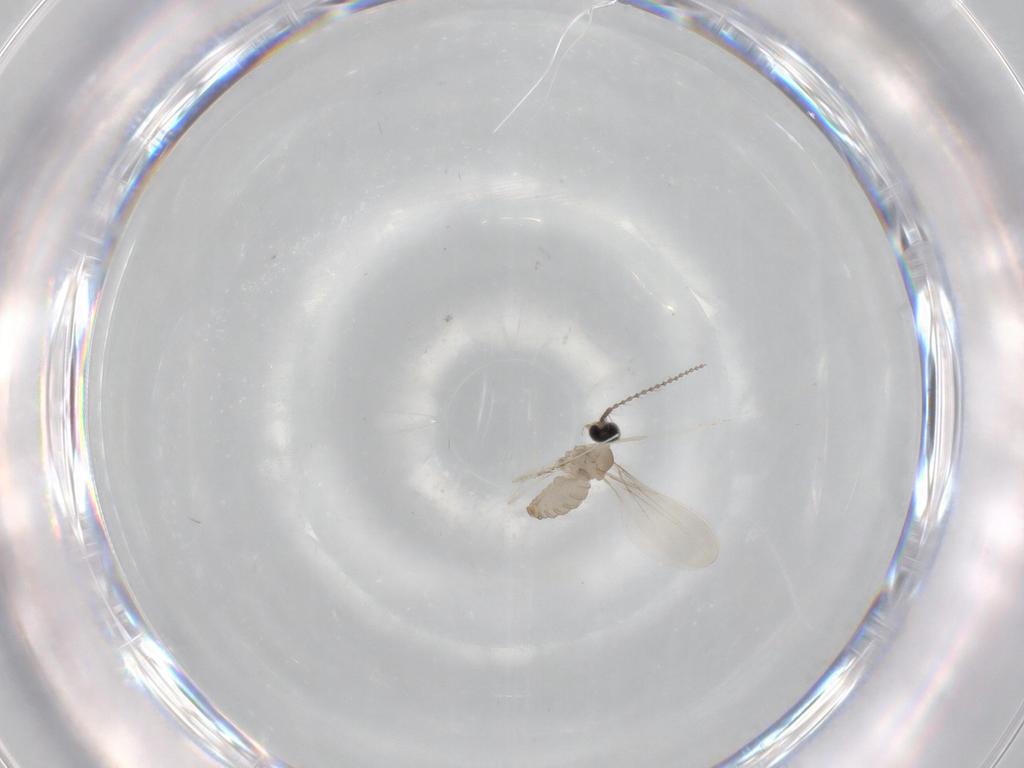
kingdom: Animalia
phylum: Arthropoda
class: Insecta
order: Diptera
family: Cecidomyiidae
